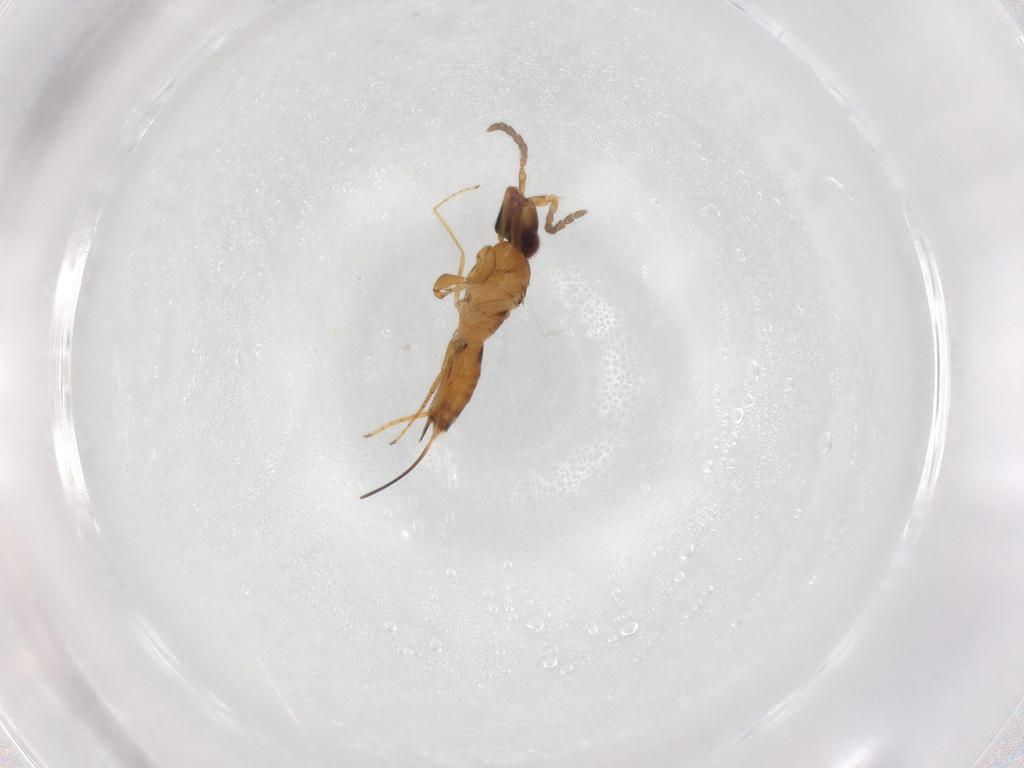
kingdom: Animalia
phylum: Arthropoda
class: Insecta
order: Hymenoptera
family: Agaonidae
